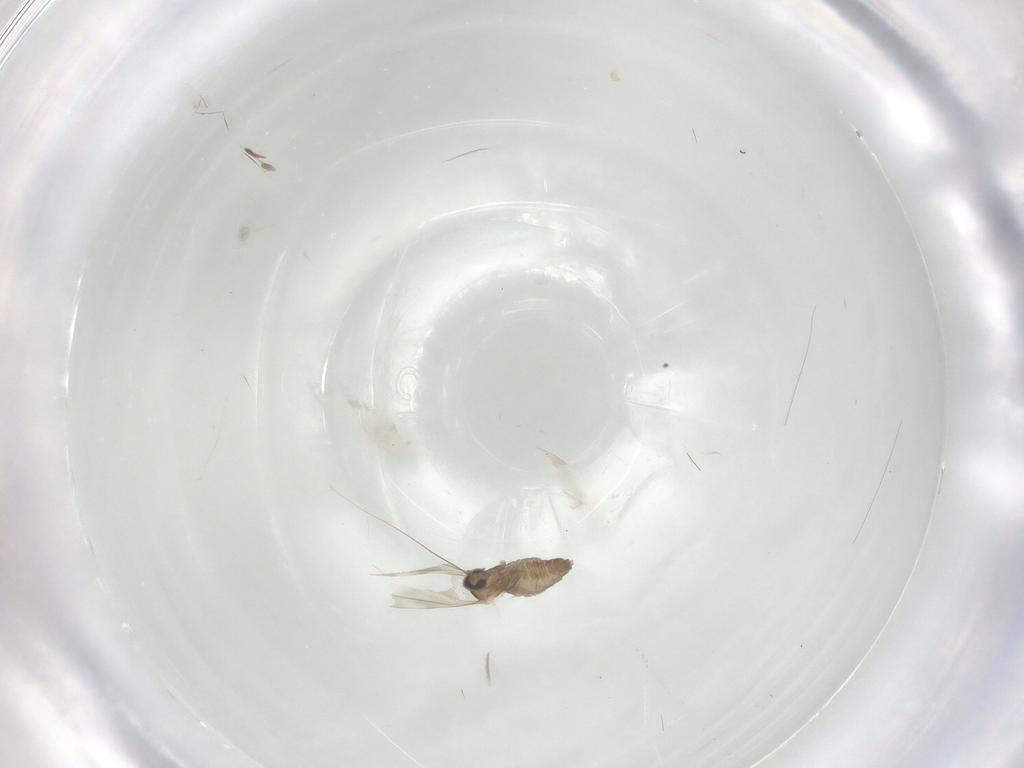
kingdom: Animalia
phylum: Arthropoda
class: Insecta
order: Diptera
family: Cecidomyiidae
